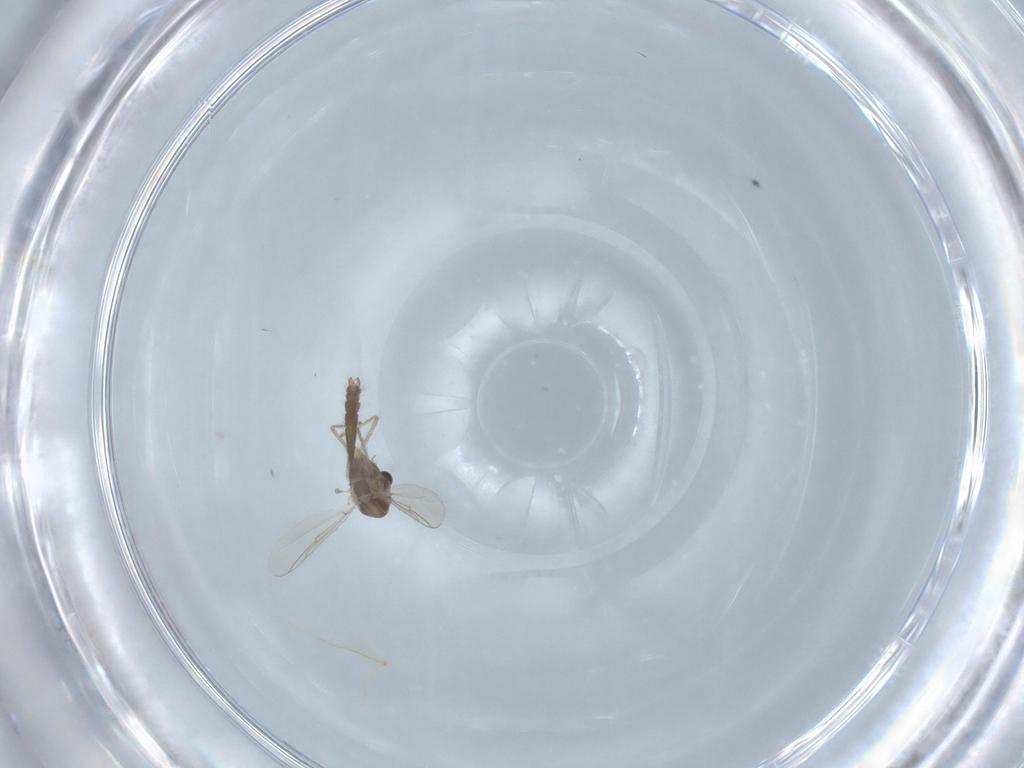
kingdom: Animalia
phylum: Arthropoda
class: Insecta
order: Diptera
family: Chironomidae
